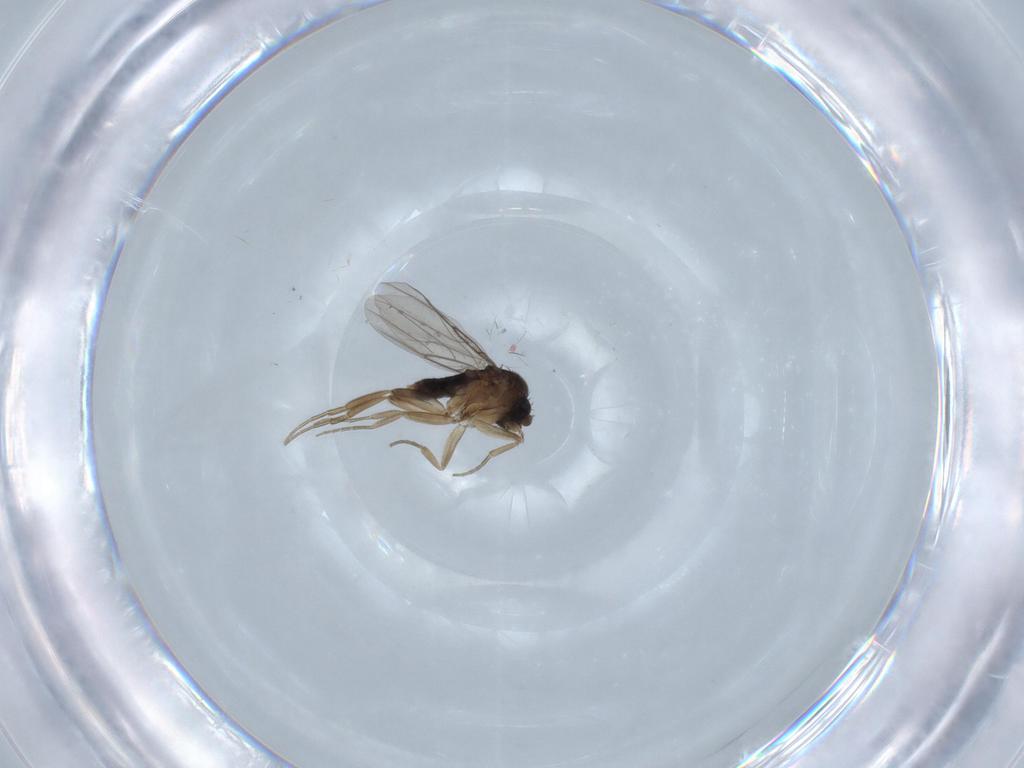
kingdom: Animalia
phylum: Arthropoda
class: Insecta
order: Diptera
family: Phoridae
